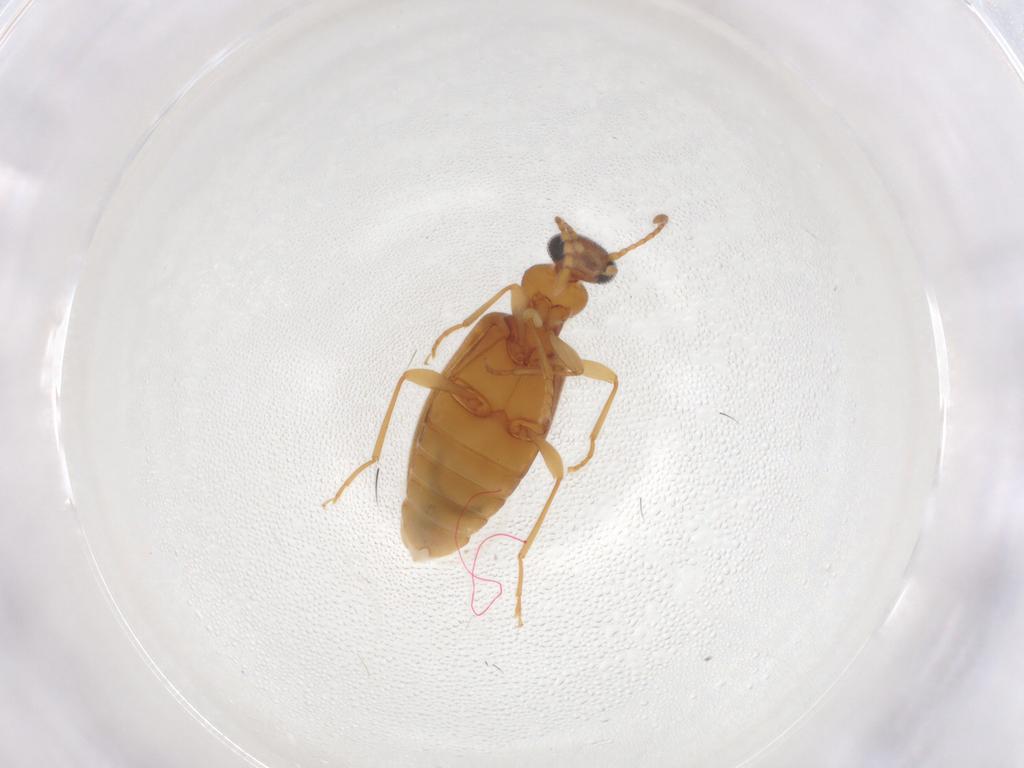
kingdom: Animalia
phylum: Arthropoda
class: Insecta
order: Coleoptera
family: Anthicidae
